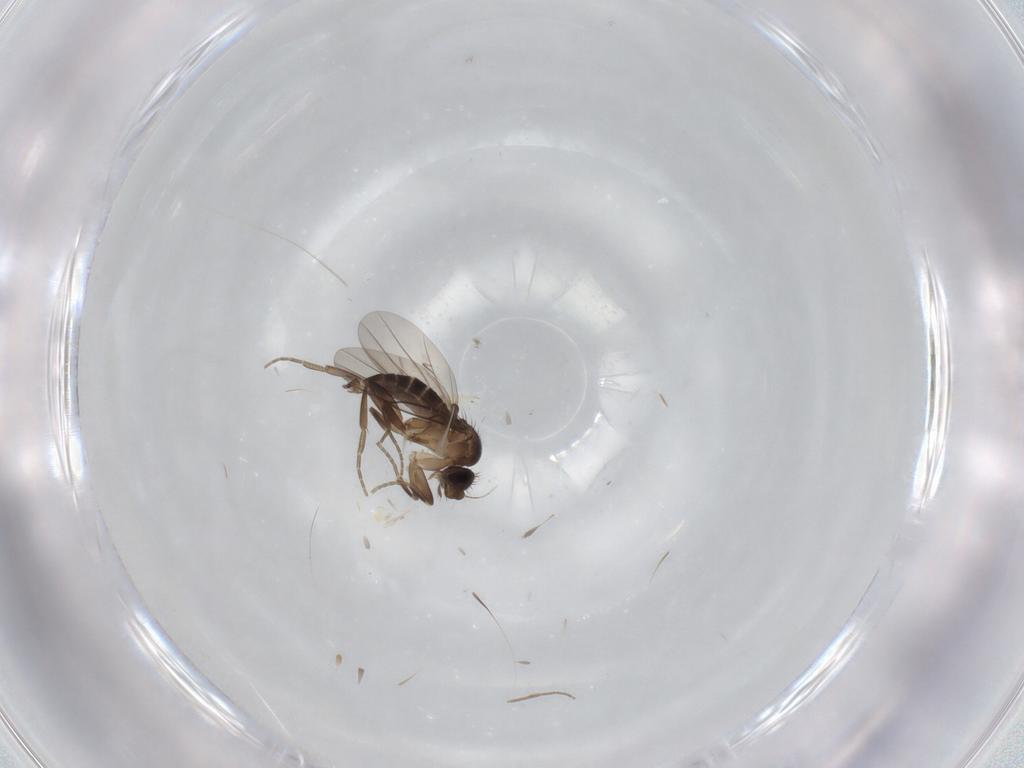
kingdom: Animalia
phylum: Arthropoda
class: Insecta
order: Diptera
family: Phoridae
